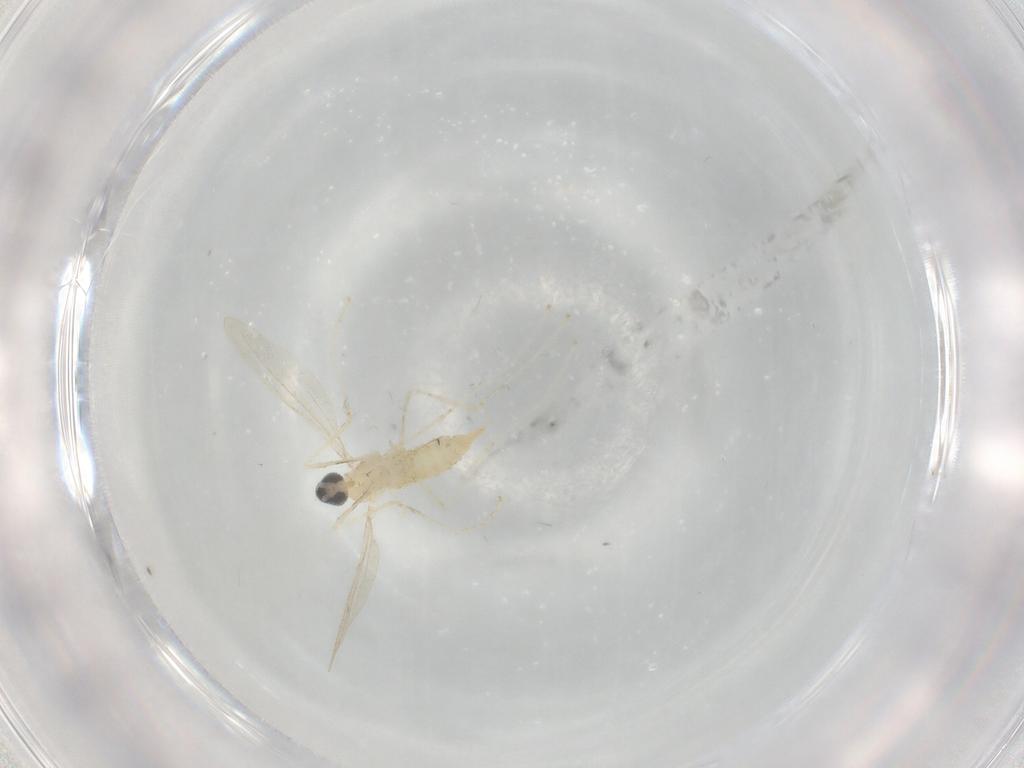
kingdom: Animalia
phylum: Arthropoda
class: Insecta
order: Diptera
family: Cecidomyiidae
